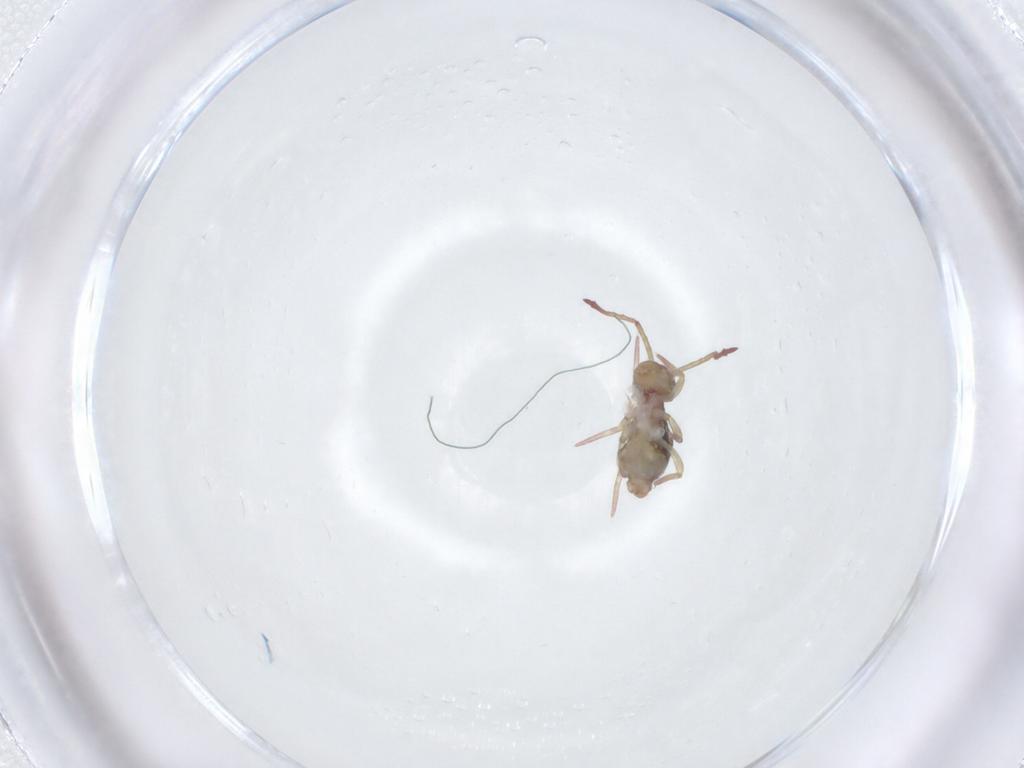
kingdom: Animalia
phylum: Arthropoda
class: Collembola
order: Symphypleona
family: Dicyrtomidae
